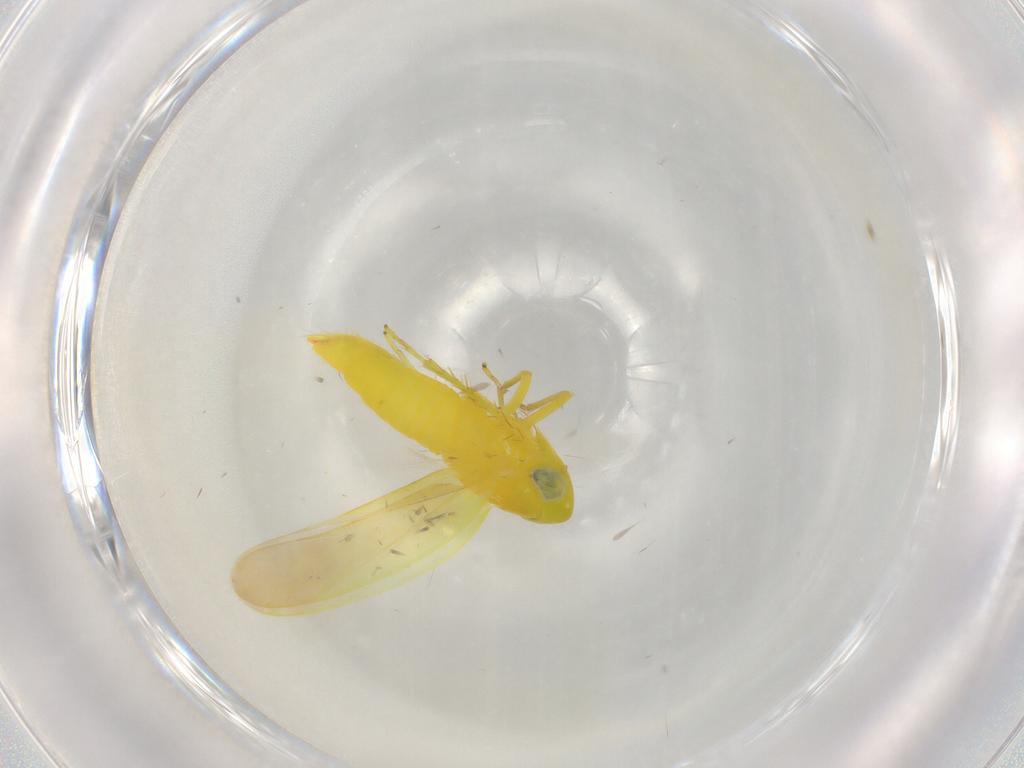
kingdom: Animalia
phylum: Arthropoda
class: Insecta
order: Hemiptera
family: Cicadellidae
